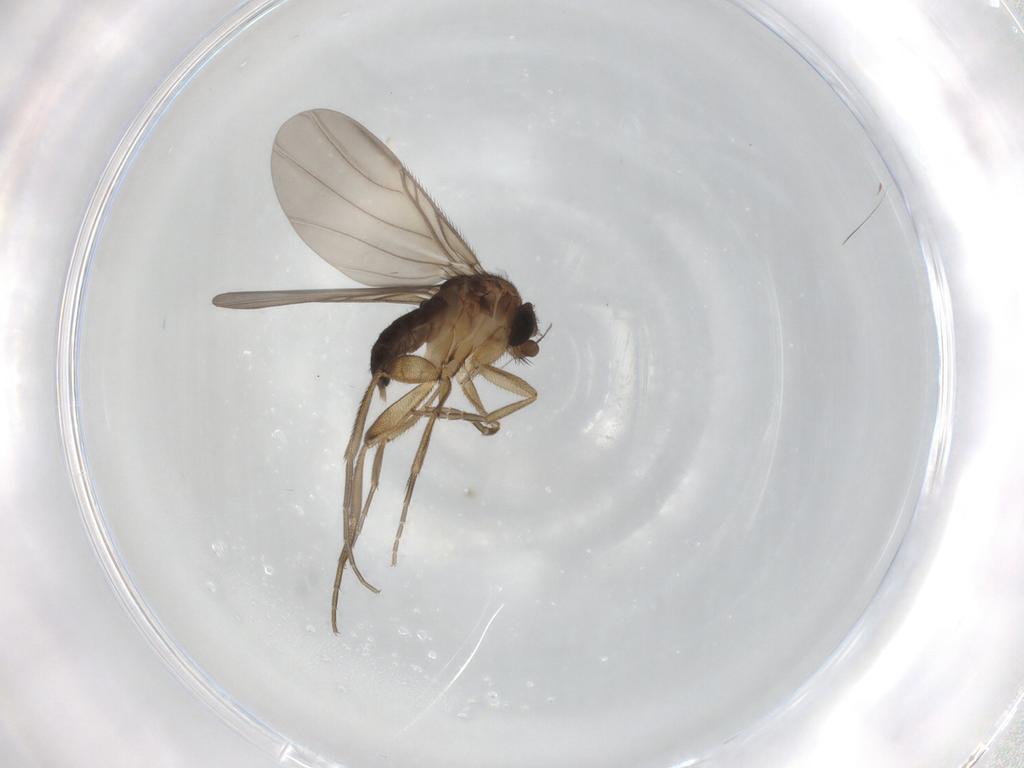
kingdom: Animalia
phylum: Arthropoda
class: Insecta
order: Diptera
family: Phoridae
